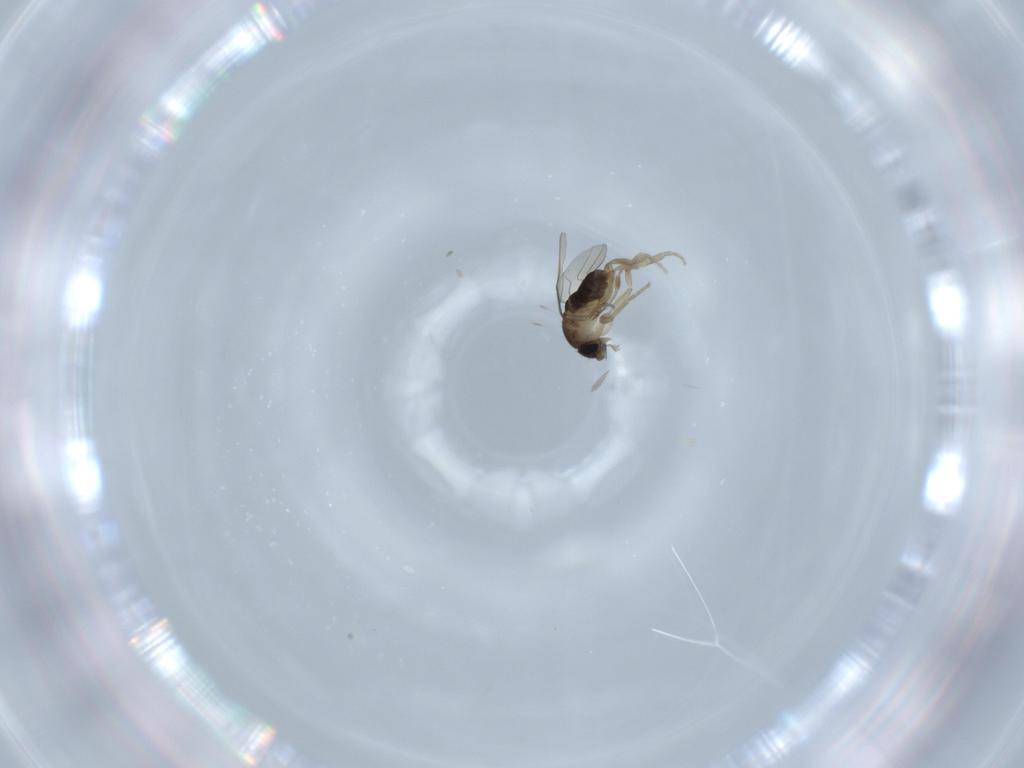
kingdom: Animalia
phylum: Arthropoda
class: Insecta
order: Diptera
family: Phoridae
